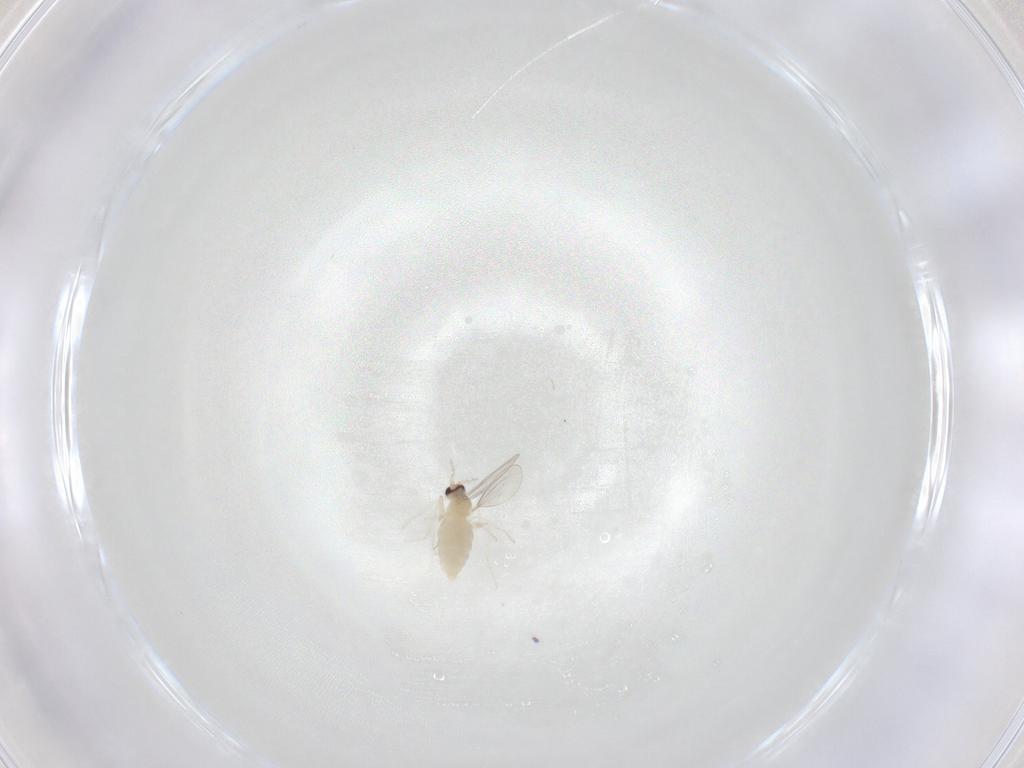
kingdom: Animalia
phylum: Arthropoda
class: Insecta
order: Diptera
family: Cecidomyiidae
